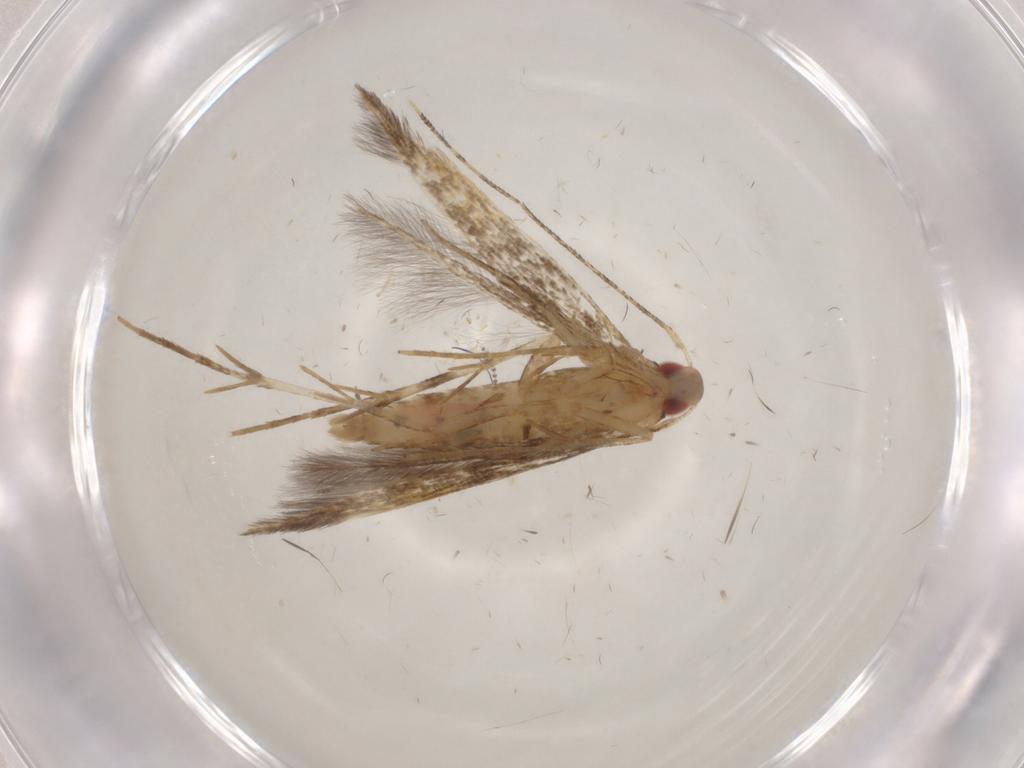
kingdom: Animalia
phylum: Arthropoda
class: Insecta
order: Lepidoptera
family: Cosmopterigidae
